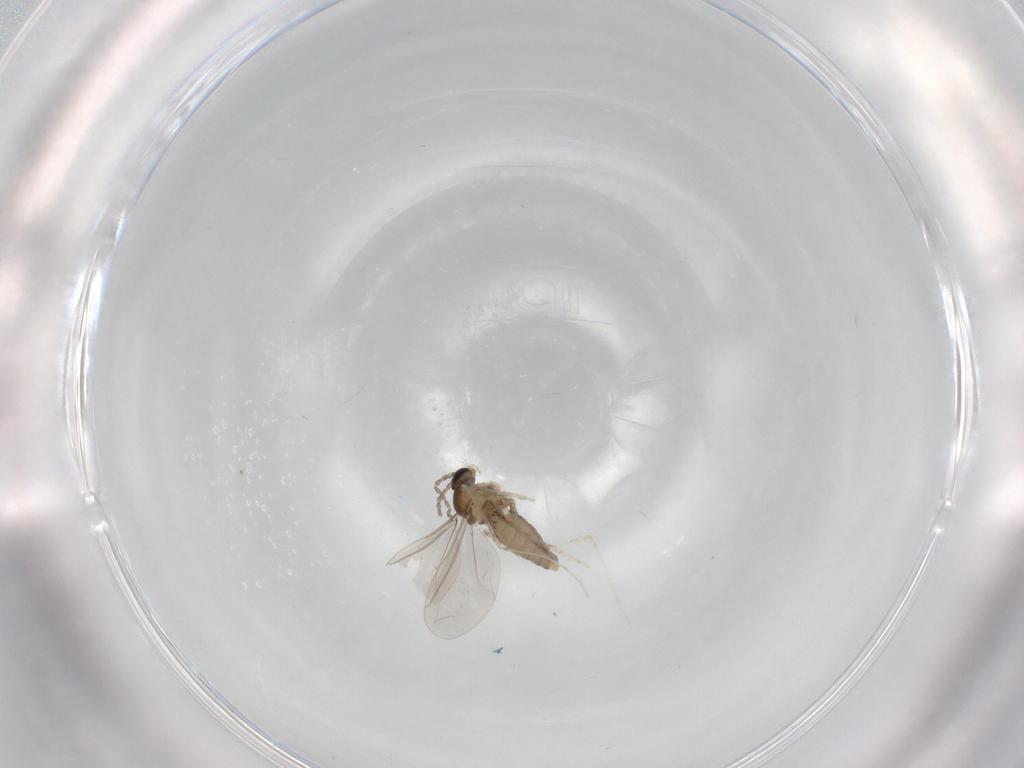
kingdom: Animalia
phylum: Arthropoda
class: Insecta
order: Diptera
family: Cecidomyiidae
